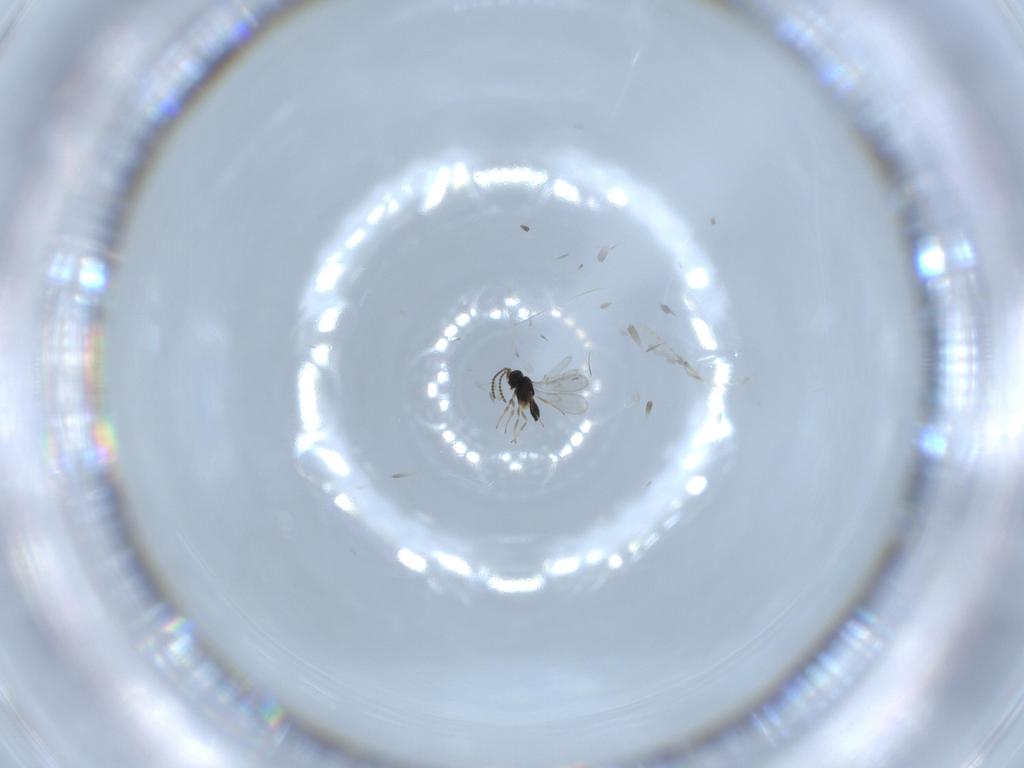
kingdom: Animalia
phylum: Arthropoda
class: Insecta
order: Hymenoptera
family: Scelionidae
